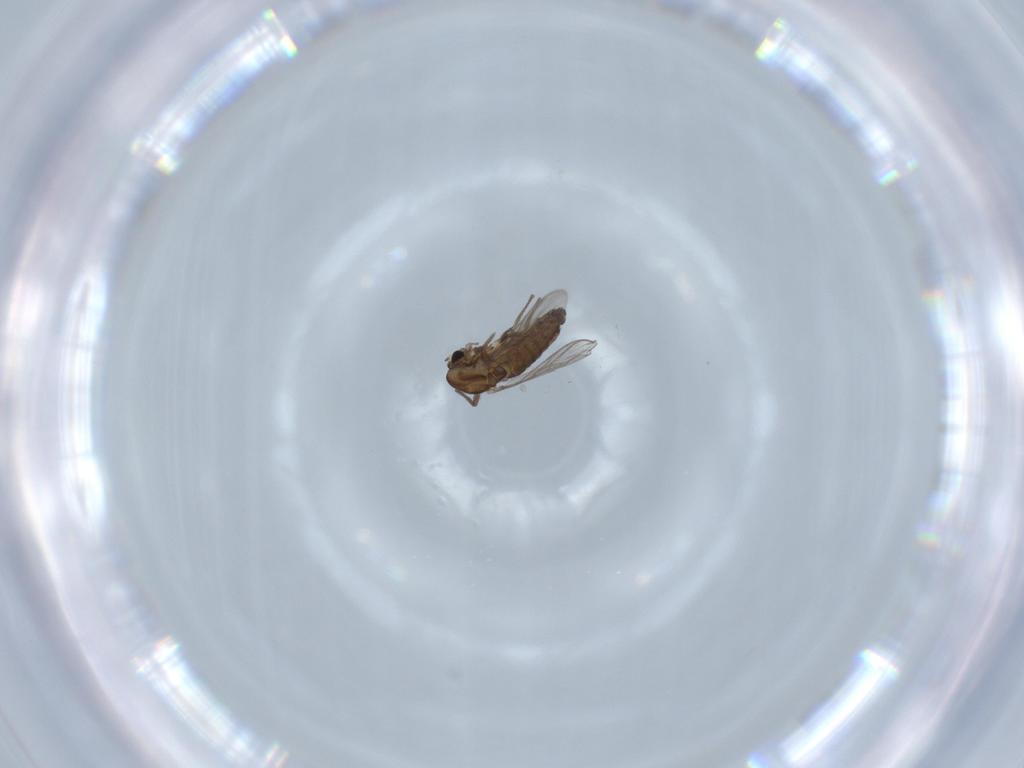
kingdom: Animalia
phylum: Arthropoda
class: Insecta
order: Diptera
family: Chironomidae
